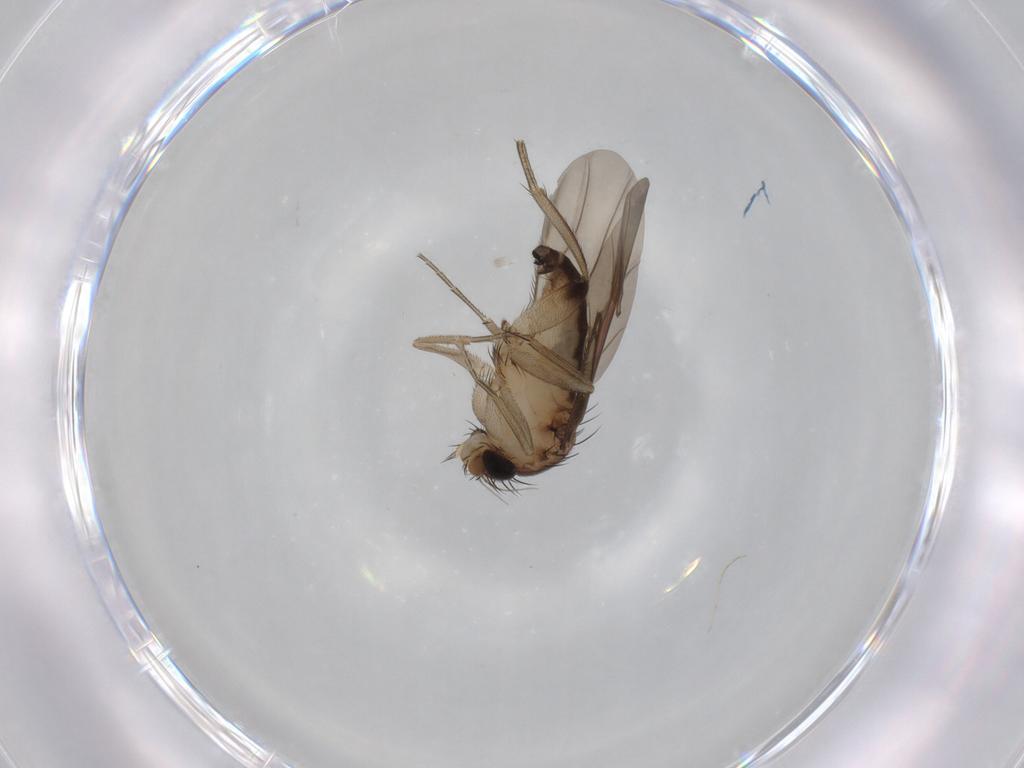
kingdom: Animalia
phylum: Arthropoda
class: Insecta
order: Diptera
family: Phoridae
